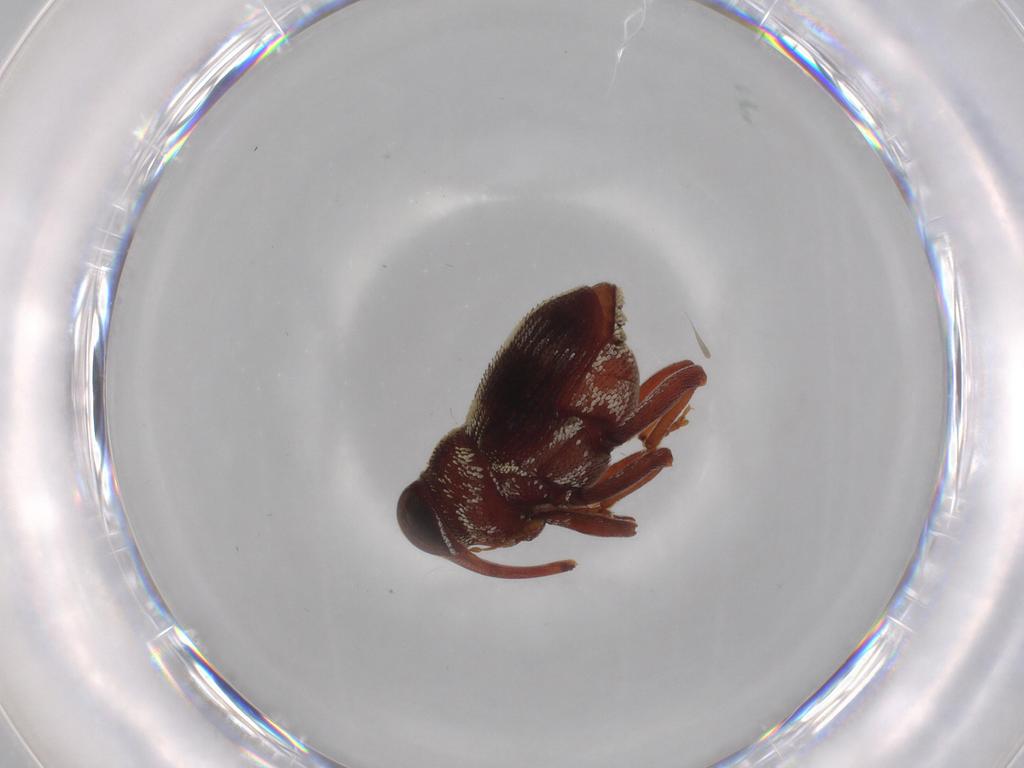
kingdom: Animalia
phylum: Arthropoda
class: Insecta
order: Coleoptera
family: Curculionidae
